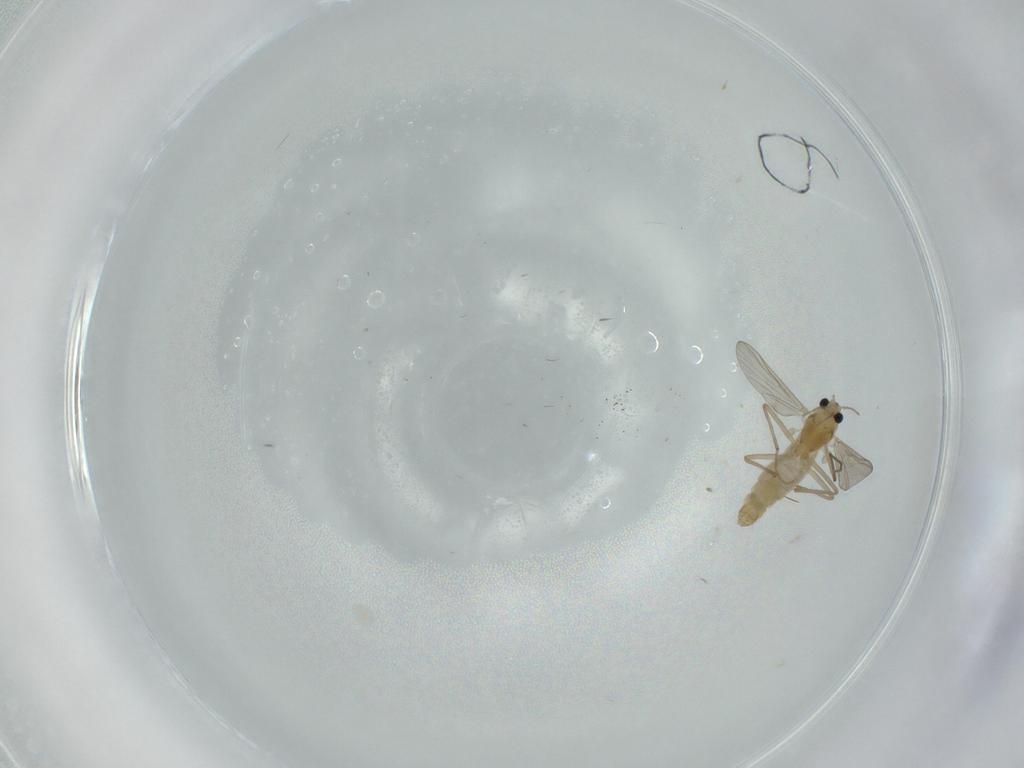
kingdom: Animalia
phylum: Arthropoda
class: Insecta
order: Diptera
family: Chironomidae
